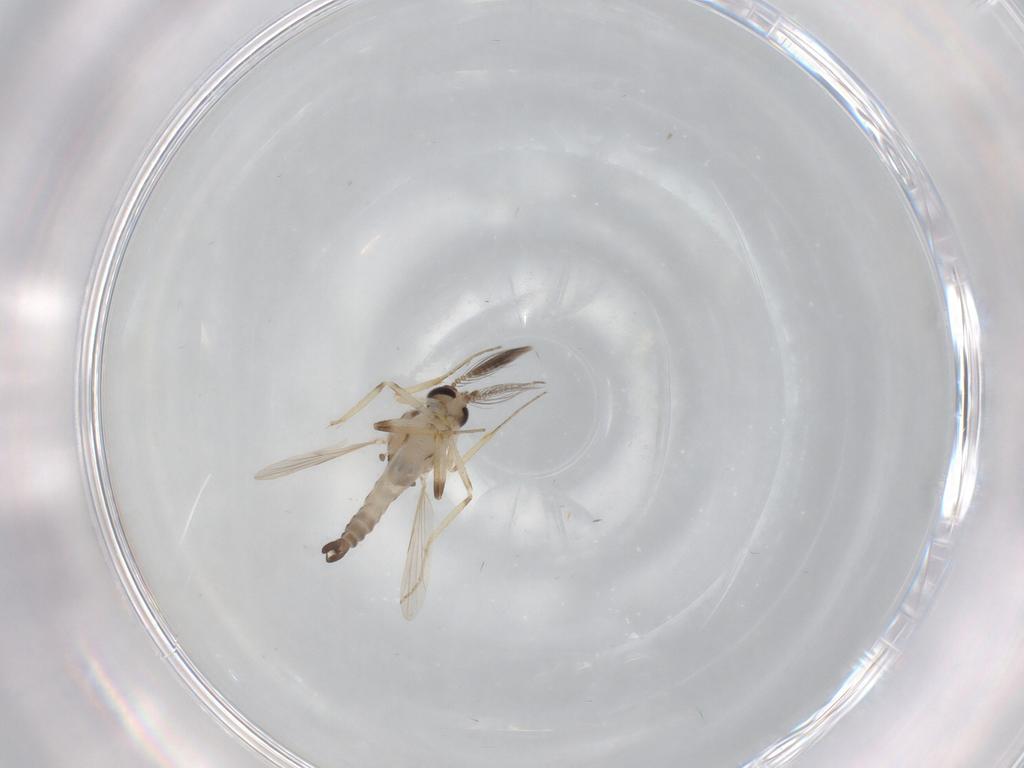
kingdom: Animalia
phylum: Arthropoda
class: Insecta
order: Diptera
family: Ceratopogonidae
